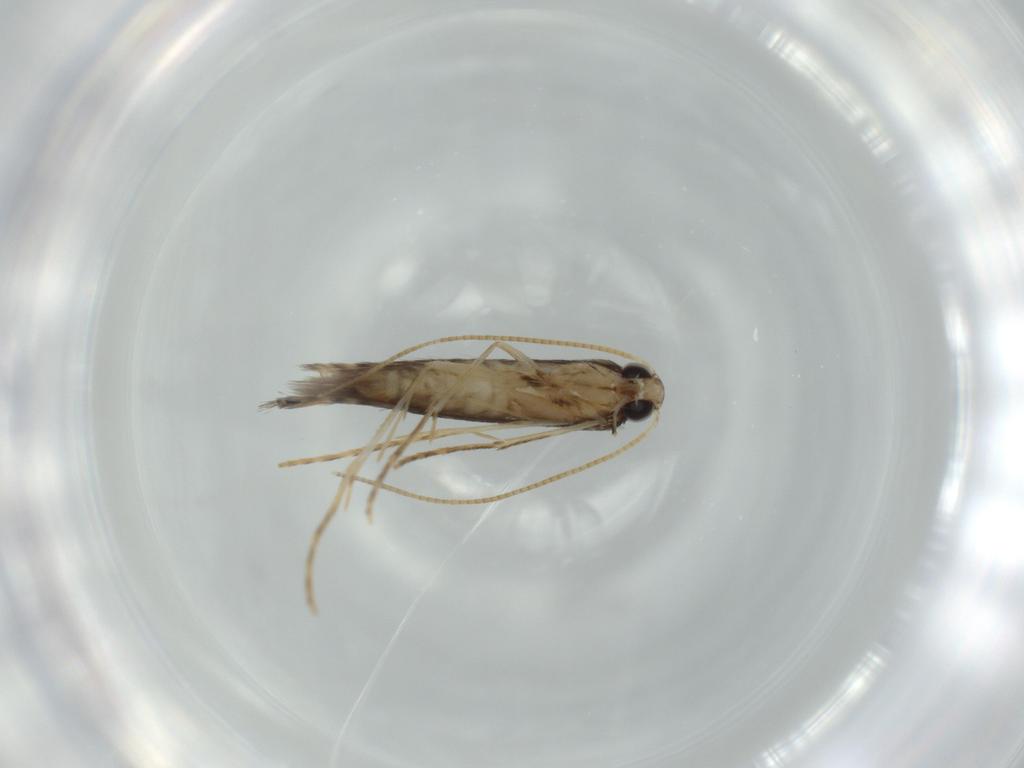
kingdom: Animalia
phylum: Arthropoda
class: Insecta
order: Lepidoptera
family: Gracillariidae
